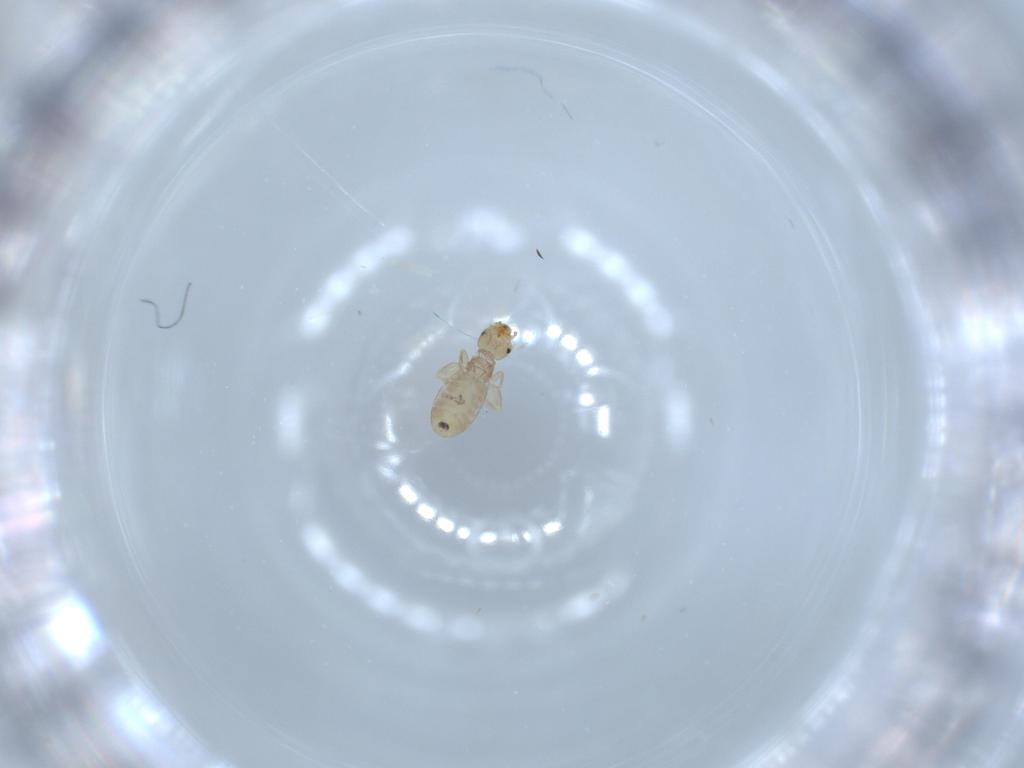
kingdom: Animalia
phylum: Arthropoda
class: Insecta
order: Psocodea
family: Liposcelididae
